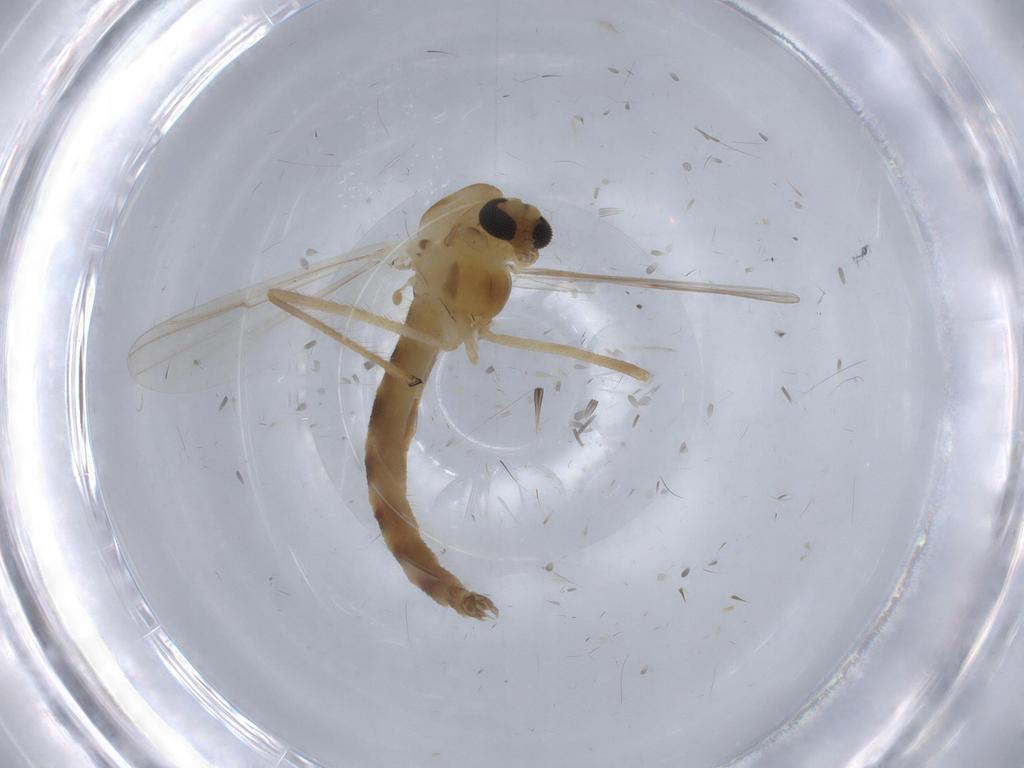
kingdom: Animalia
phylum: Arthropoda
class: Insecta
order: Diptera
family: Chironomidae
